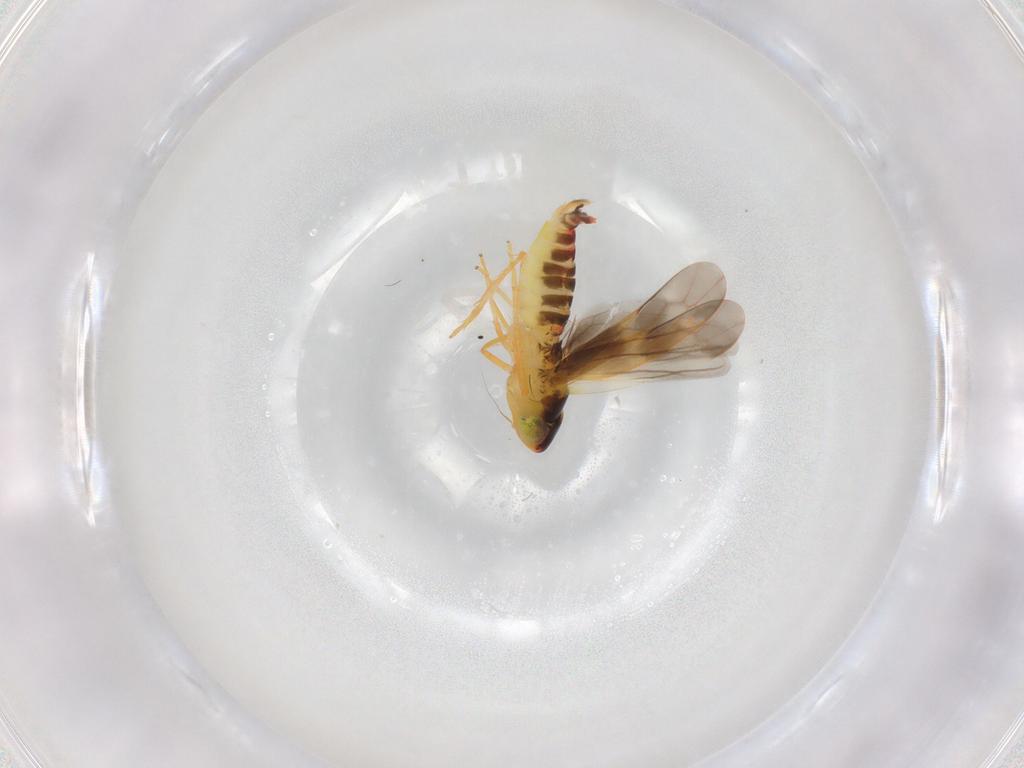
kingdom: Animalia
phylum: Arthropoda
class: Insecta
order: Hemiptera
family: Cicadellidae
